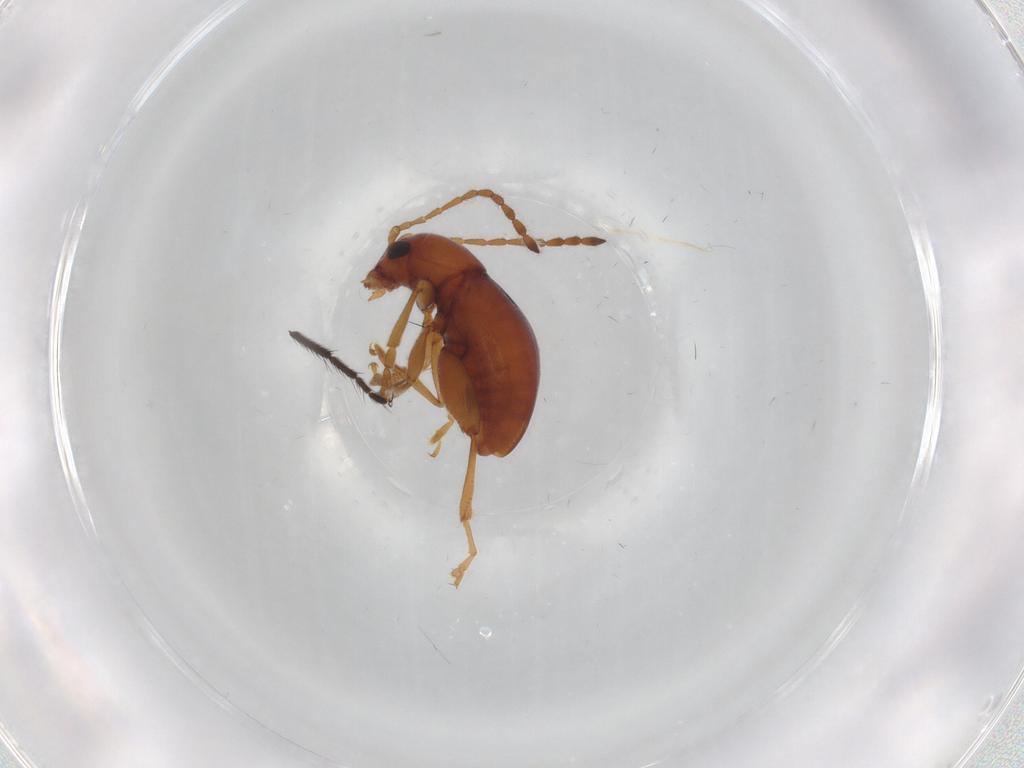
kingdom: Animalia
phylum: Arthropoda
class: Insecta
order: Coleoptera
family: Chrysomelidae
